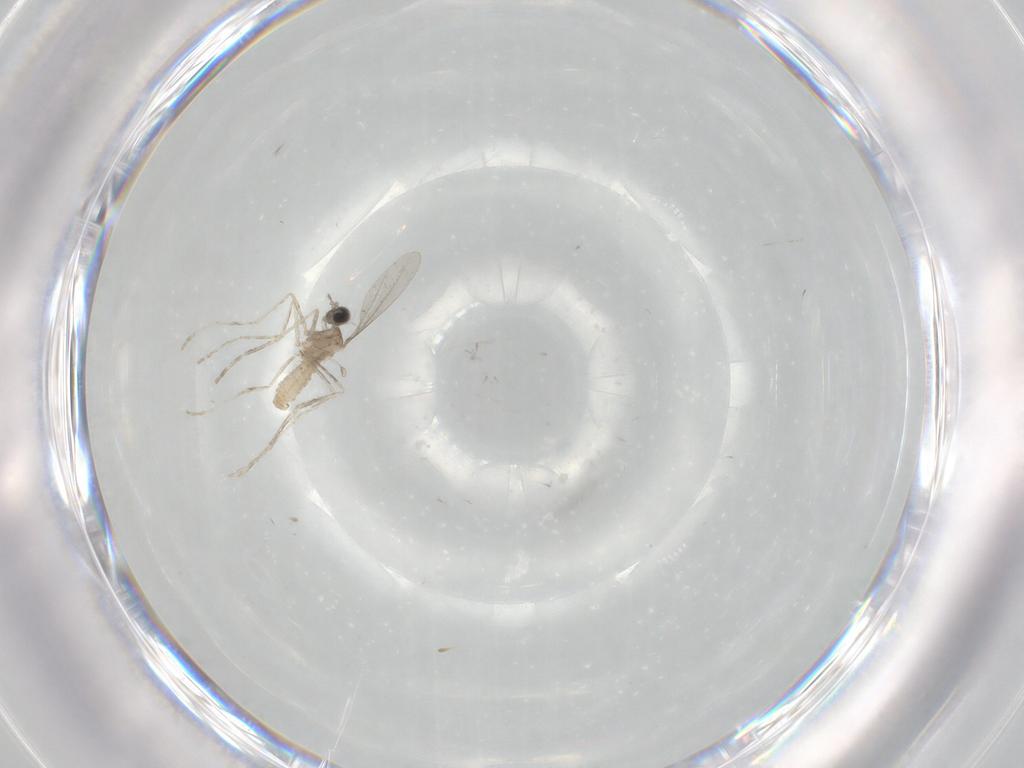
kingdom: Animalia
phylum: Arthropoda
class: Insecta
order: Diptera
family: Cecidomyiidae
